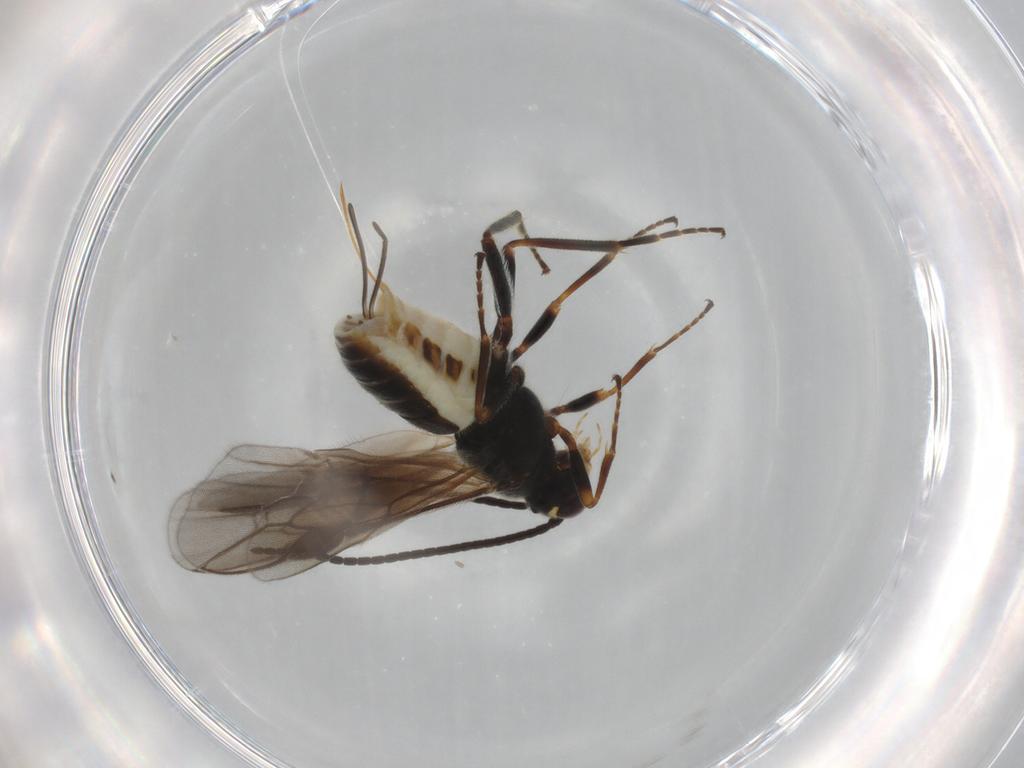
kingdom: Animalia
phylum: Arthropoda
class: Insecta
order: Hymenoptera
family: Braconidae
